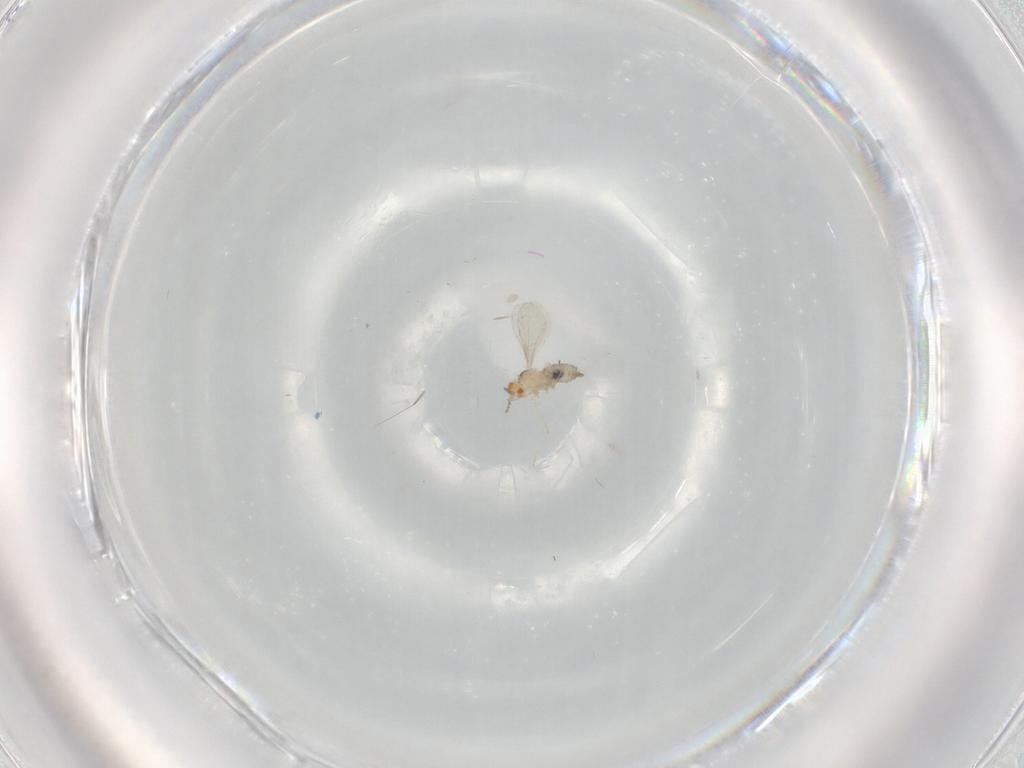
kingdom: Animalia
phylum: Arthropoda
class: Insecta
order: Diptera
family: Cecidomyiidae
